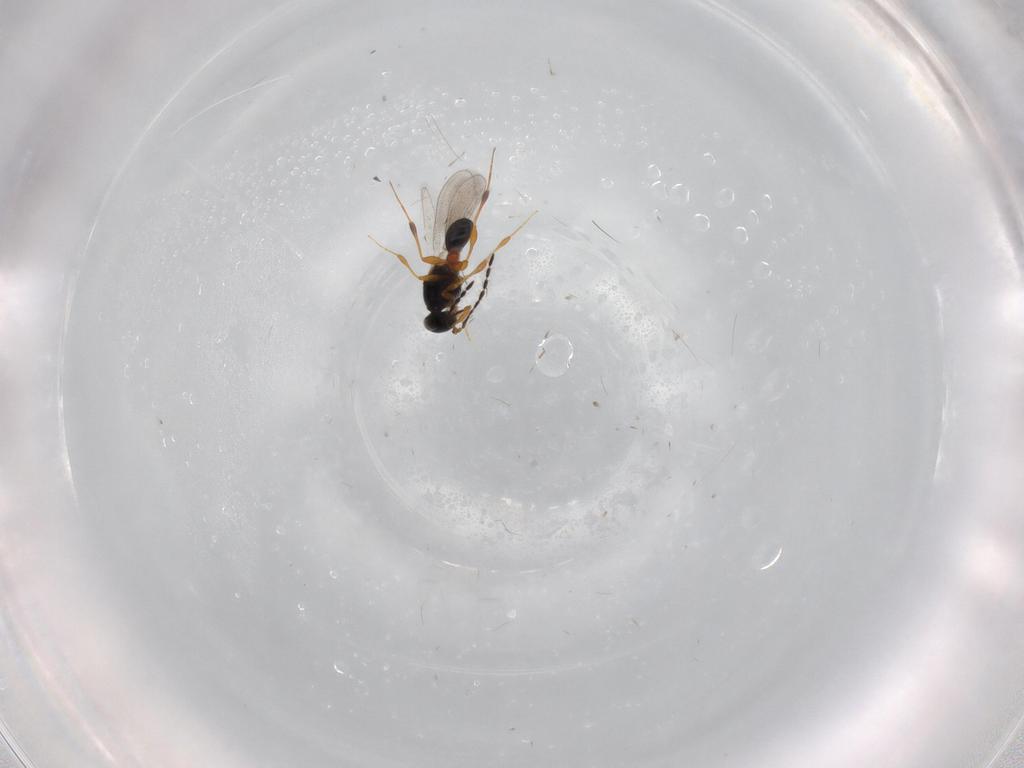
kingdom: Animalia
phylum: Arthropoda
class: Insecta
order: Hymenoptera
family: Platygastridae
